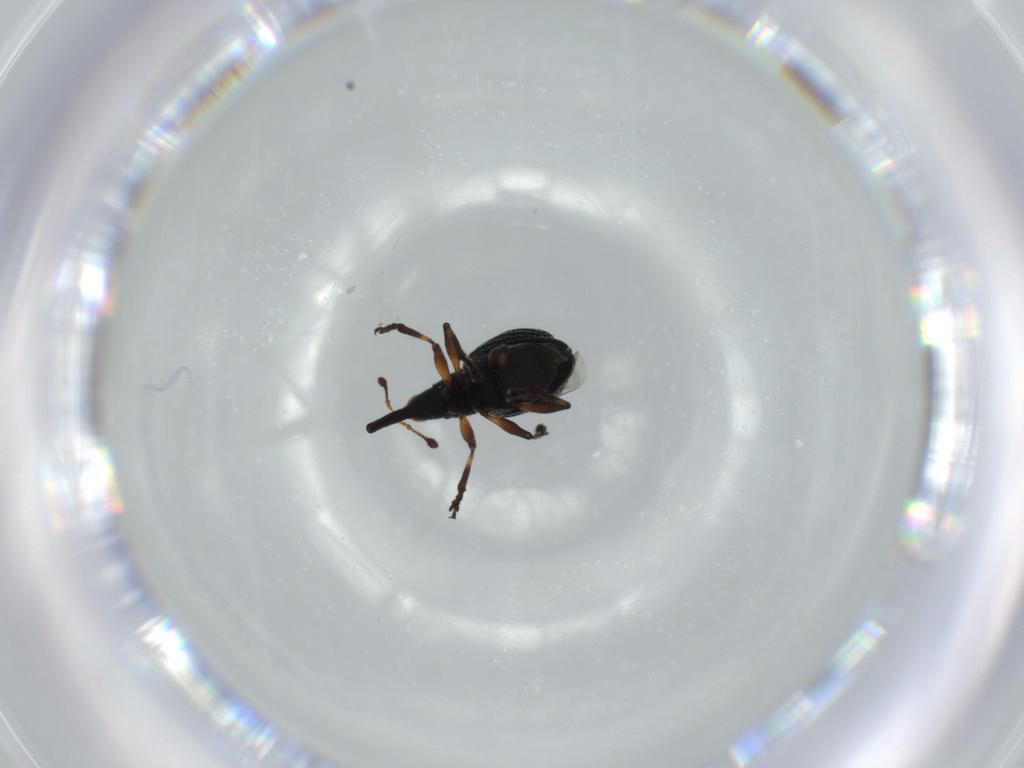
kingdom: Animalia
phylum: Arthropoda
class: Insecta
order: Coleoptera
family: Brentidae
